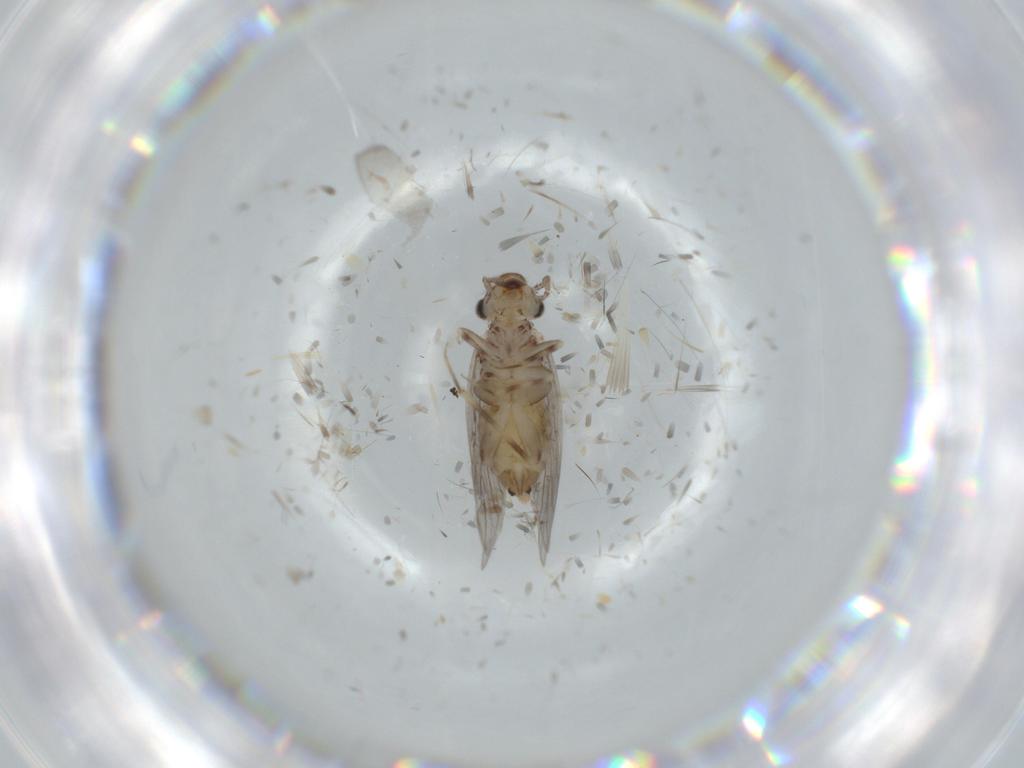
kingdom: Animalia
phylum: Arthropoda
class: Insecta
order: Psocodea
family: Lepidopsocidae
